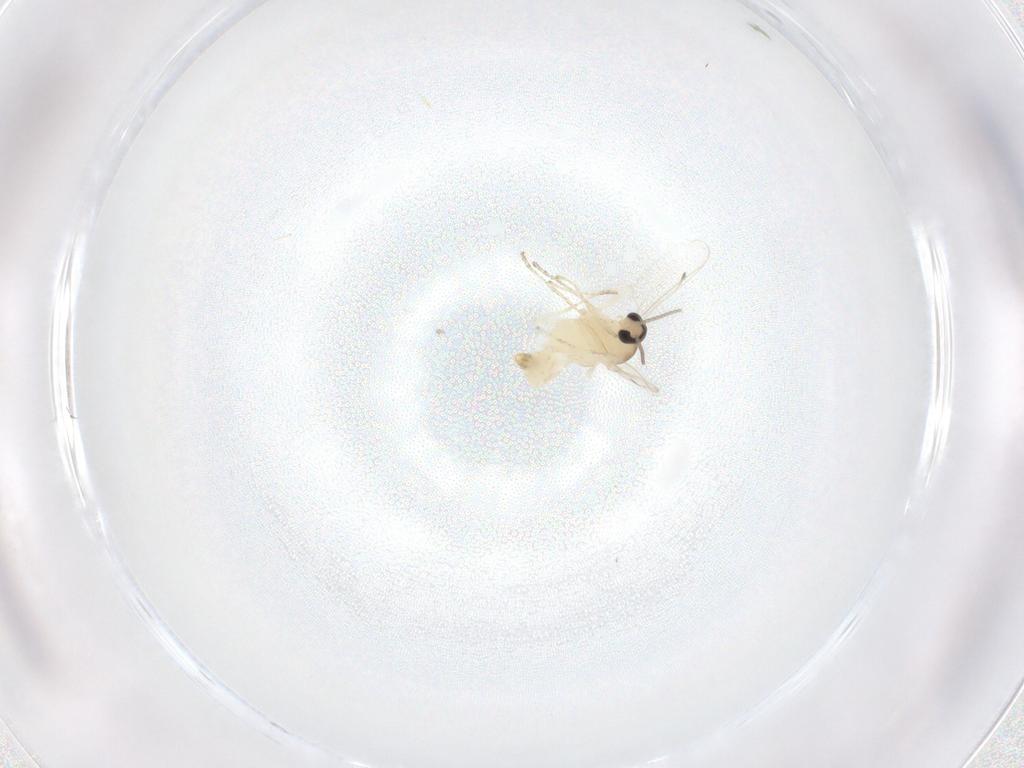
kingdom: Animalia
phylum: Arthropoda
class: Insecta
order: Diptera
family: Cecidomyiidae
